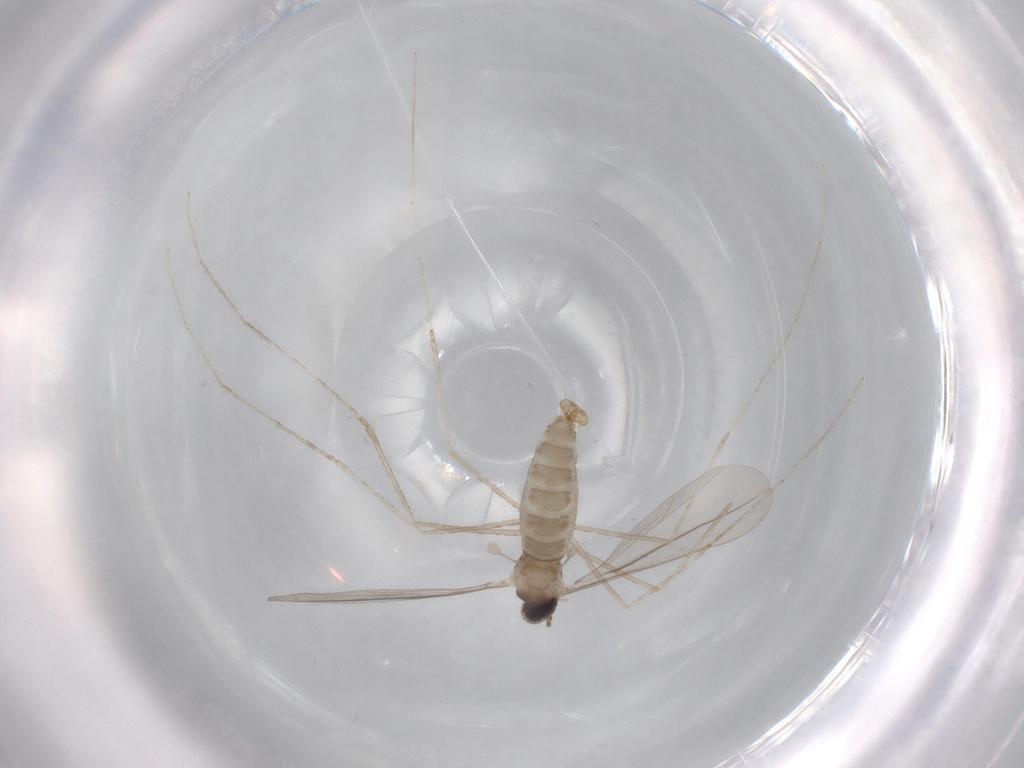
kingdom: Animalia
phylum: Arthropoda
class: Insecta
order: Diptera
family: Cecidomyiidae
